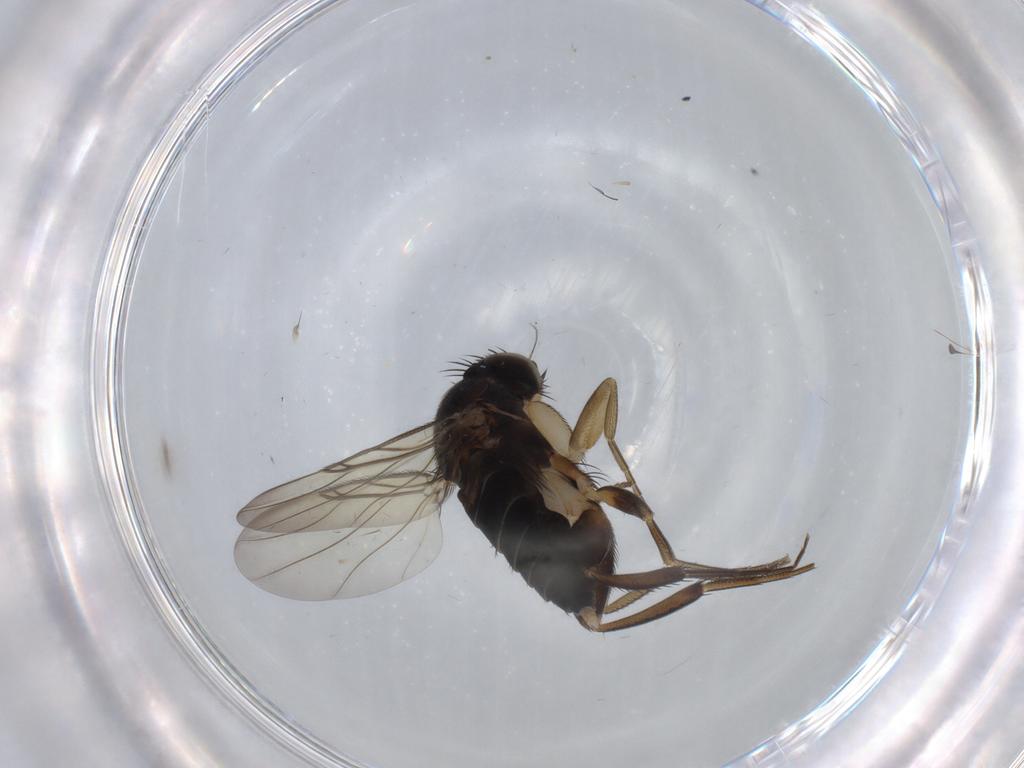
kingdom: Animalia
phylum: Arthropoda
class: Insecta
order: Diptera
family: Phoridae
